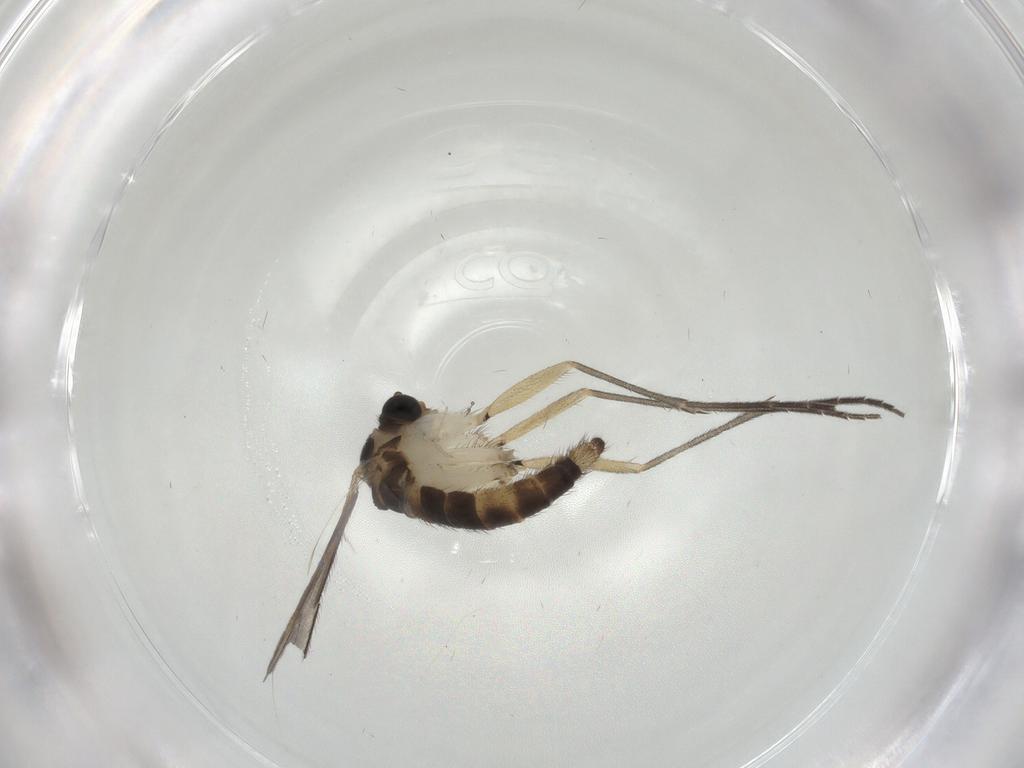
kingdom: Animalia
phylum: Arthropoda
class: Insecta
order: Diptera
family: Sciaridae
